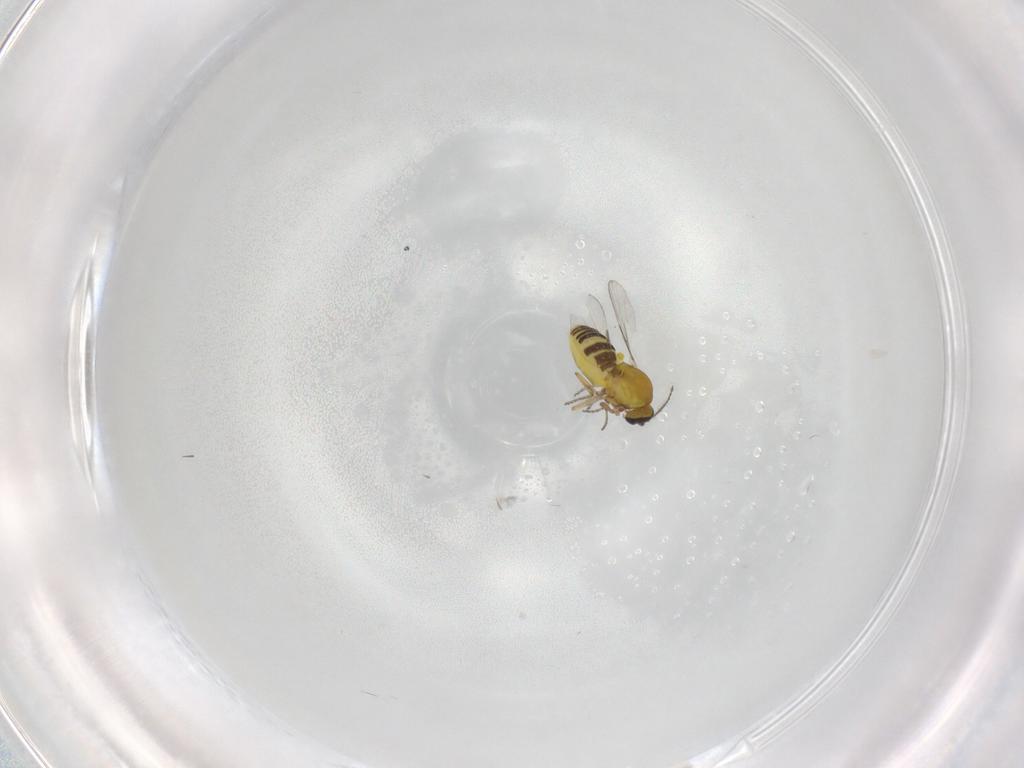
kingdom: Animalia
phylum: Arthropoda
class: Insecta
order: Diptera
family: Ceratopogonidae
